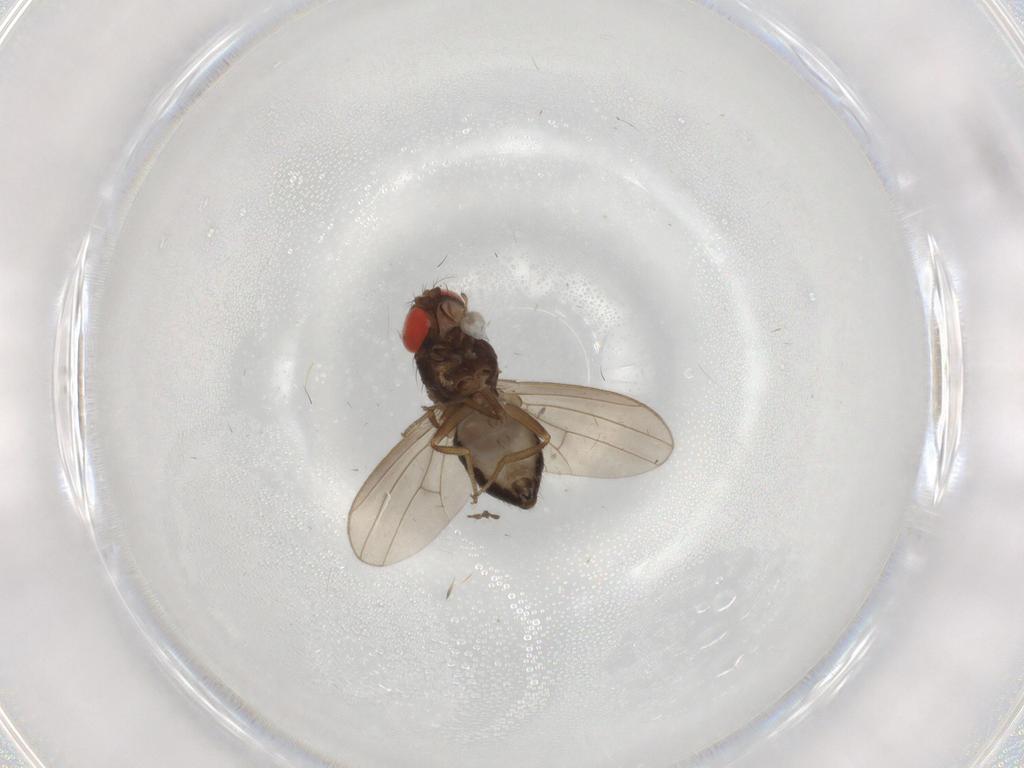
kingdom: Animalia
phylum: Arthropoda
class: Insecta
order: Diptera
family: Drosophilidae
